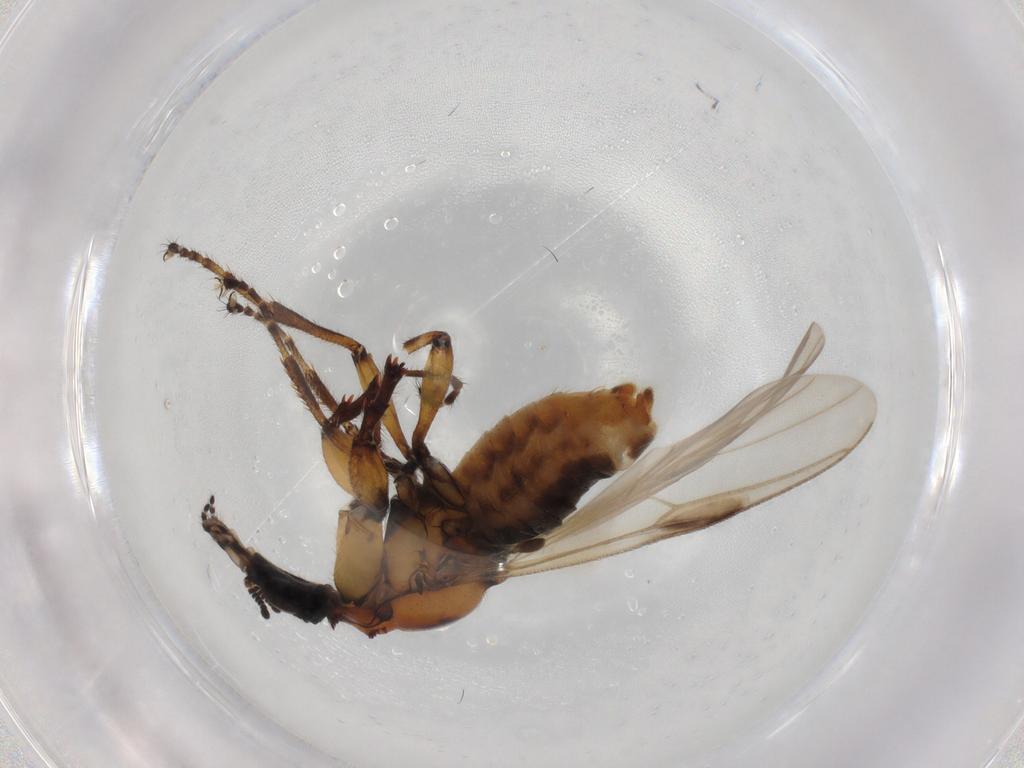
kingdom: Animalia
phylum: Arthropoda
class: Insecta
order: Diptera
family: Bibionidae
